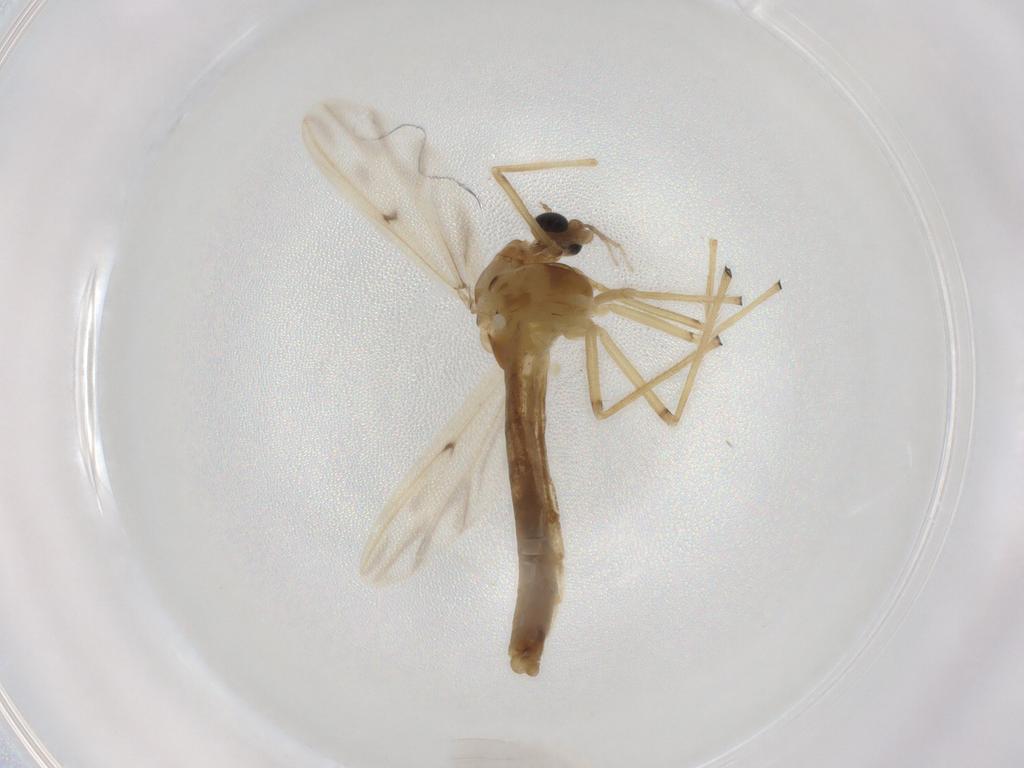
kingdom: Animalia
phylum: Arthropoda
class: Insecta
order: Diptera
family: Chironomidae
